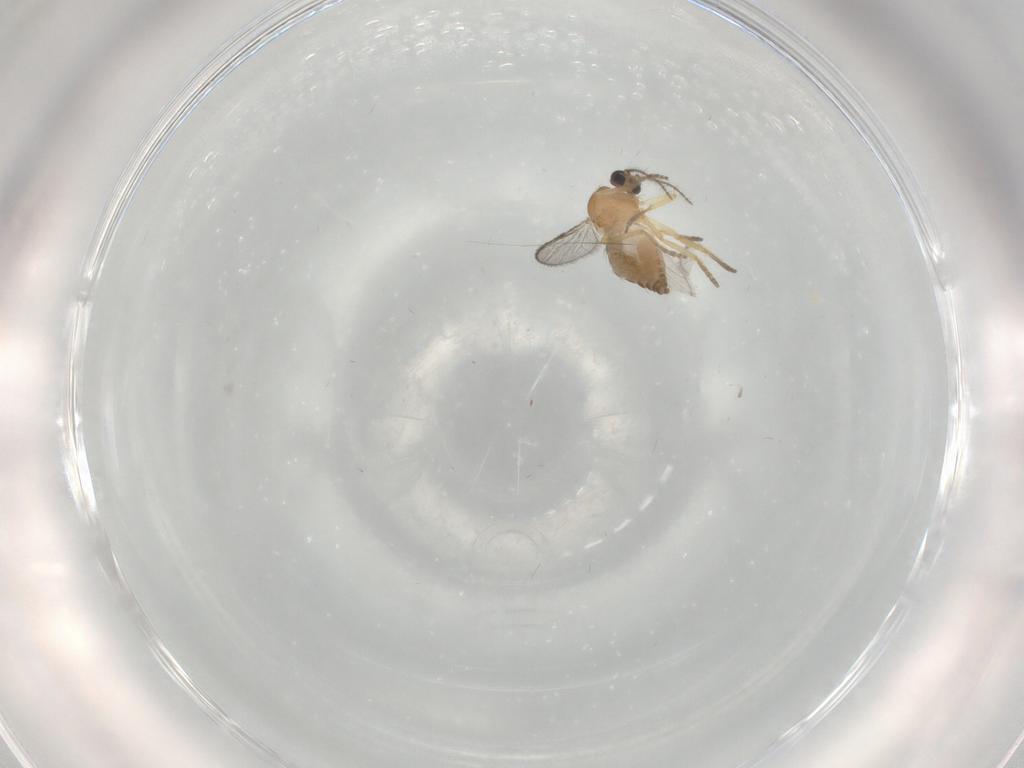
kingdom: Animalia
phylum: Arthropoda
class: Insecta
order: Diptera
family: Ceratopogonidae
